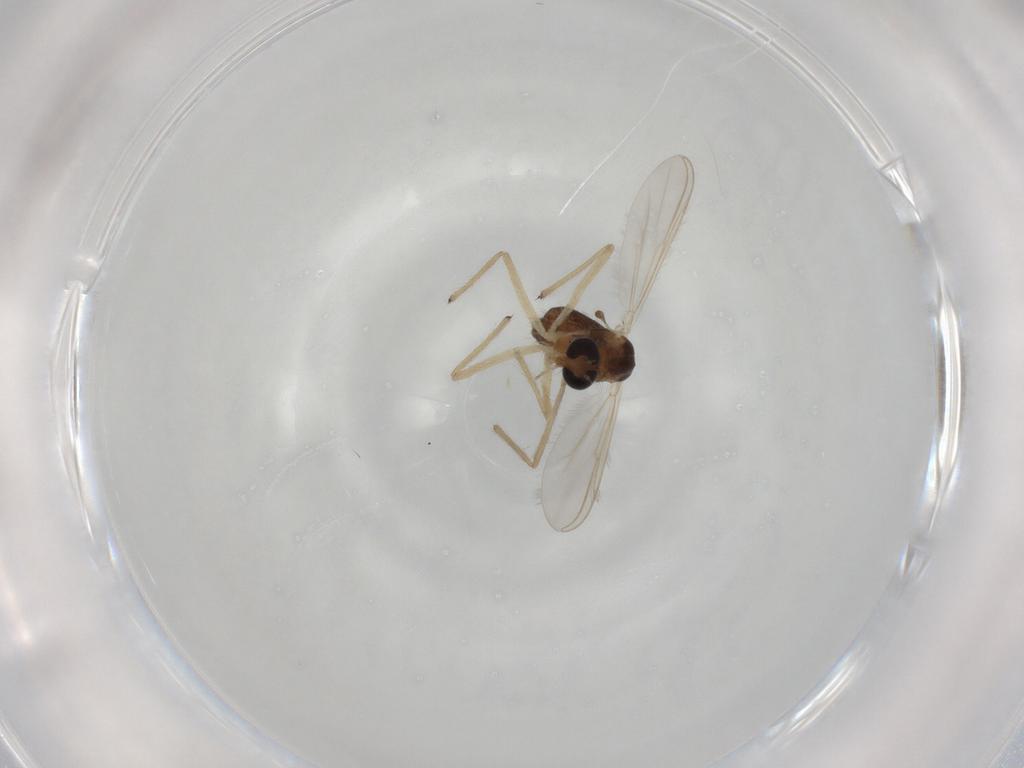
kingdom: Animalia
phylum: Arthropoda
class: Insecta
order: Diptera
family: Chironomidae
